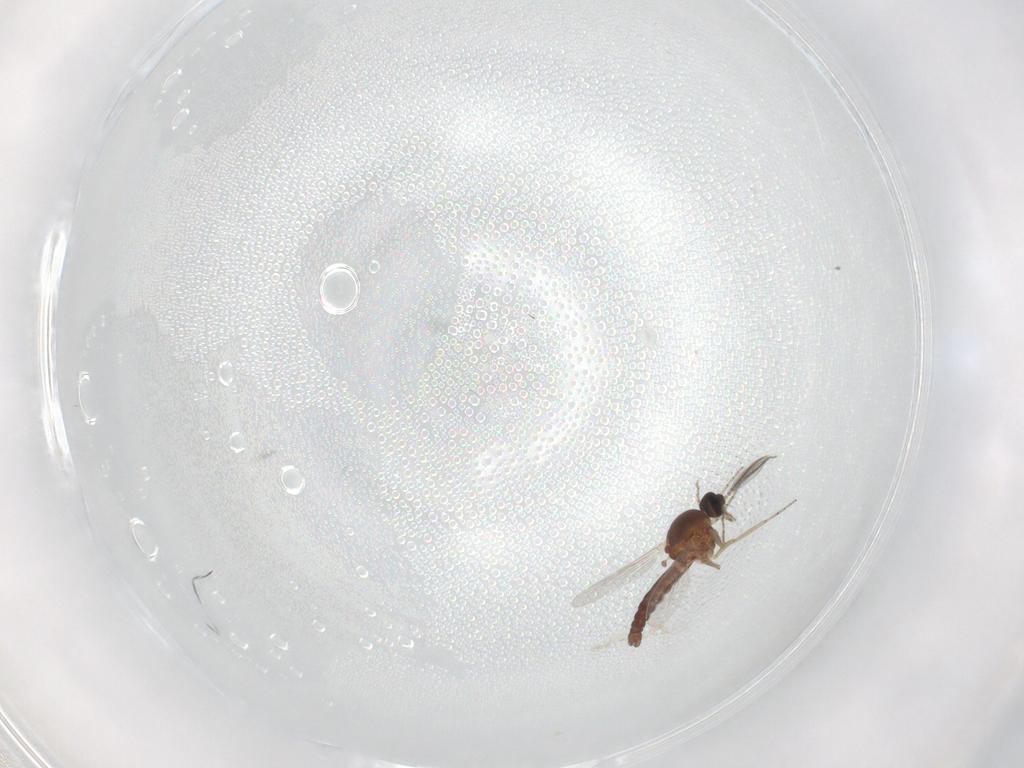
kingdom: Animalia
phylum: Arthropoda
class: Insecta
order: Diptera
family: Ceratopogonidae
